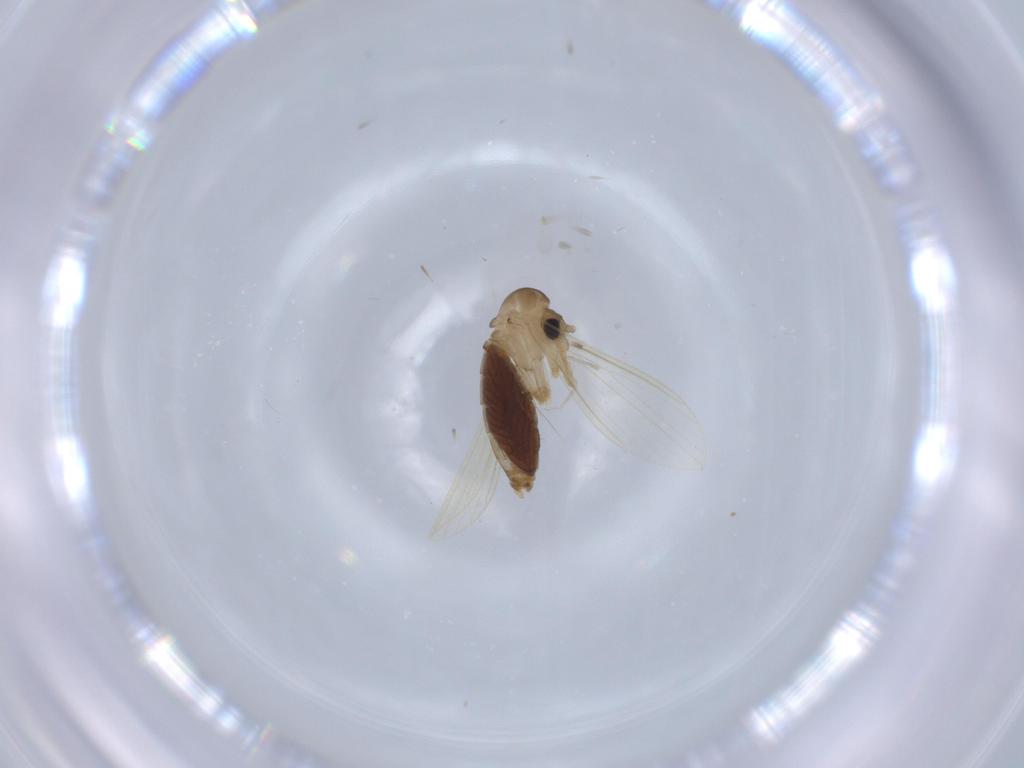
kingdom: Animalia
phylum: Arthropoda
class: Insecta
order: Diptera
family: Psychodidae
